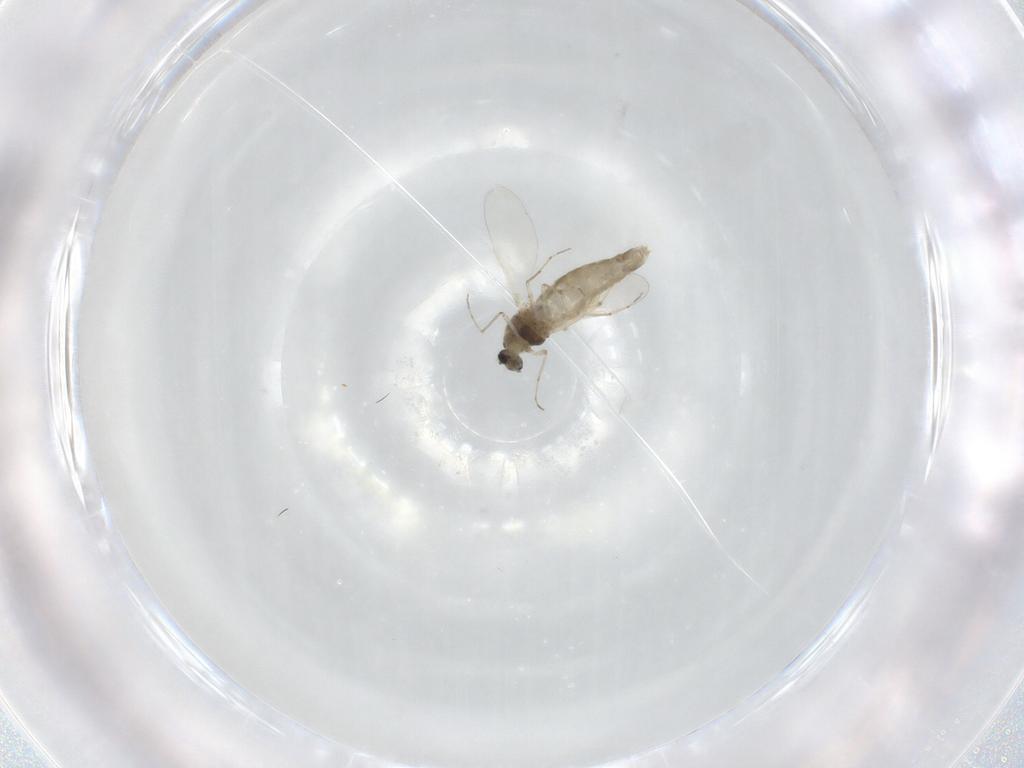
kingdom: Animalia
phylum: Arthropoda
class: Insecta
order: Diptera
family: Chironomidae
